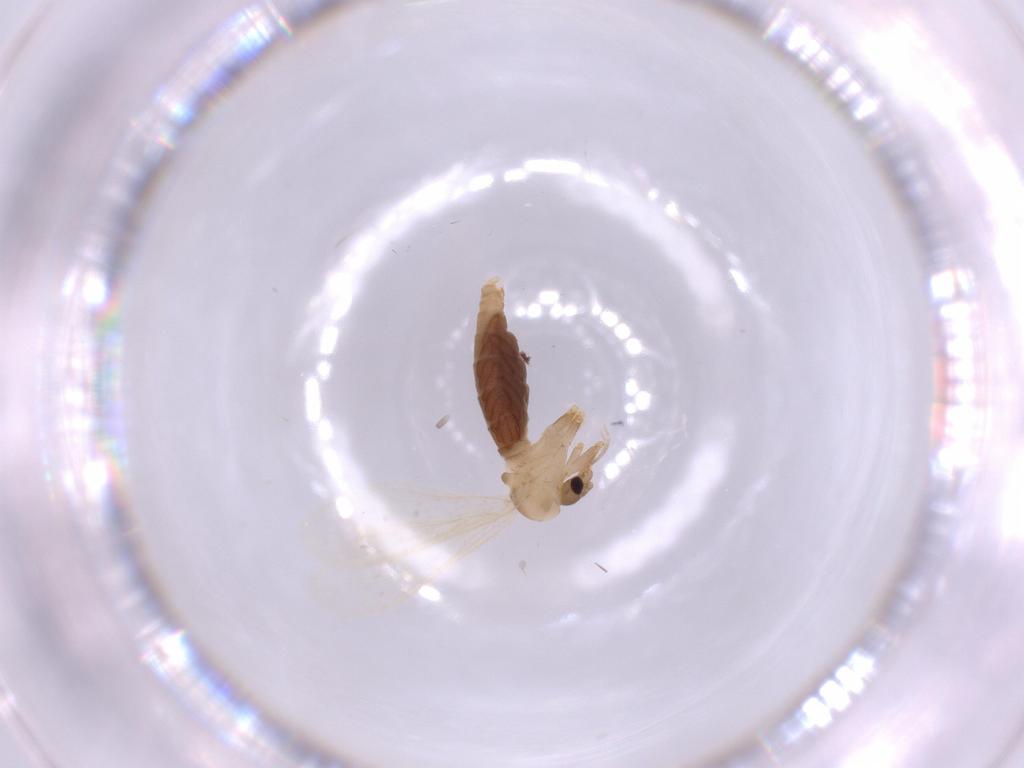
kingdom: Animalia
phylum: Arthropoda
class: Insecta
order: Diptera
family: Psychodidae
